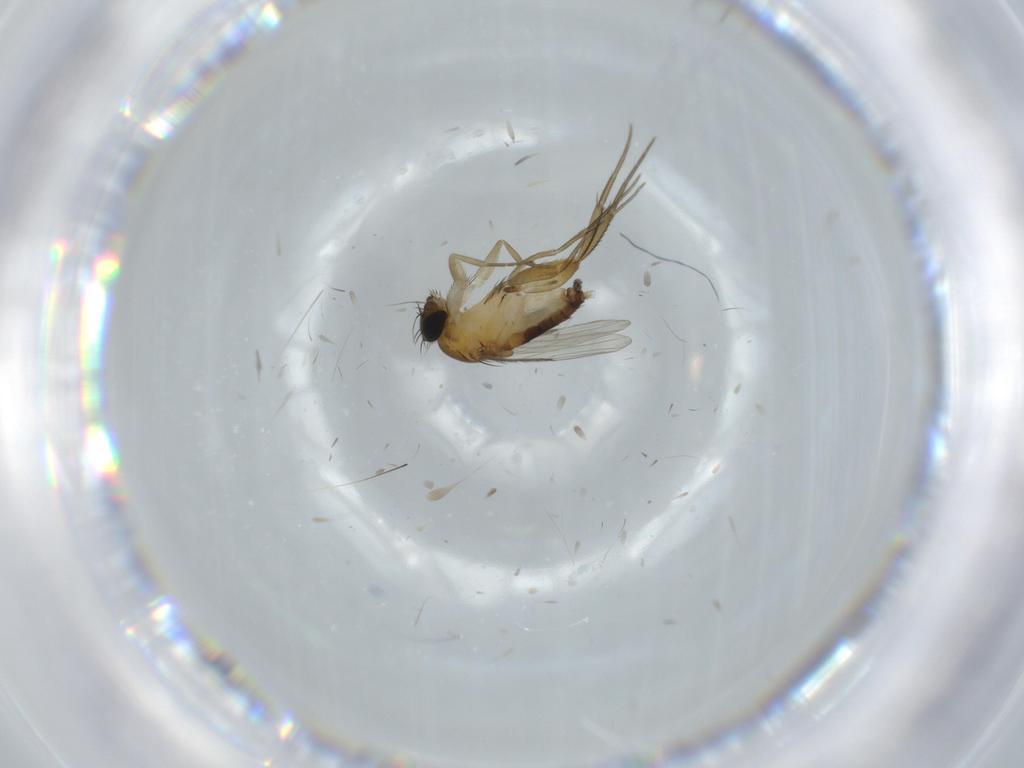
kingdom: Animalia
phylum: Arthropoda
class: Insecta
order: Diptera
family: Phoridae
